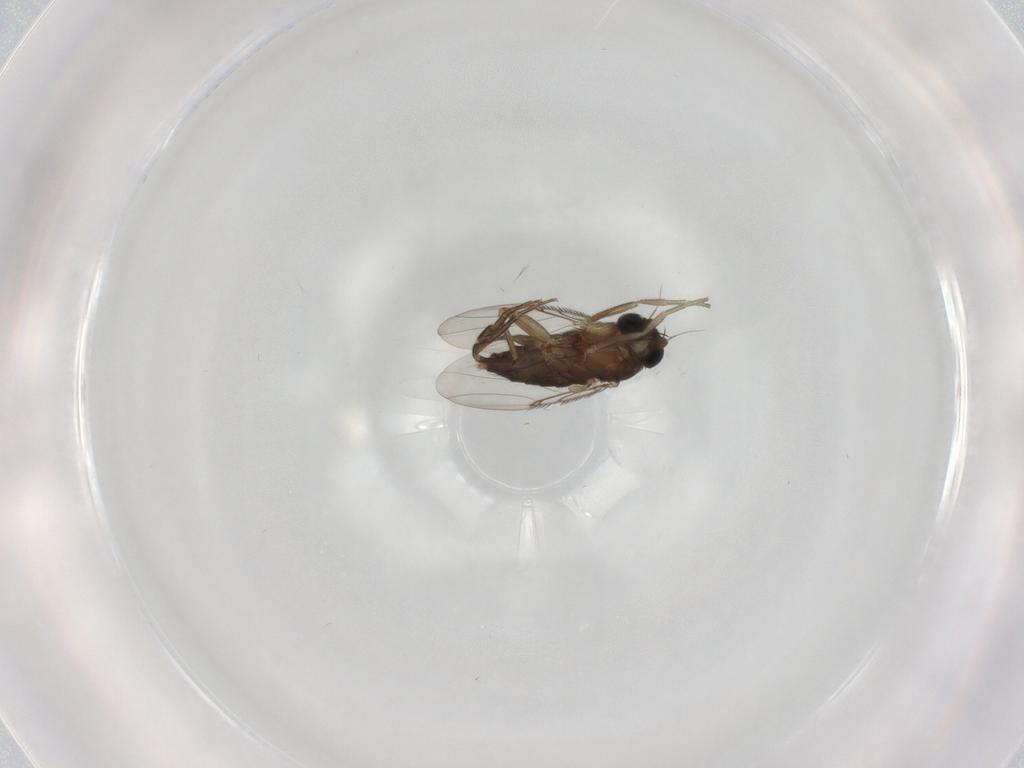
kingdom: Animalia
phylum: Arthropoda
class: Insecta
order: Diptera
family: Phoridae
